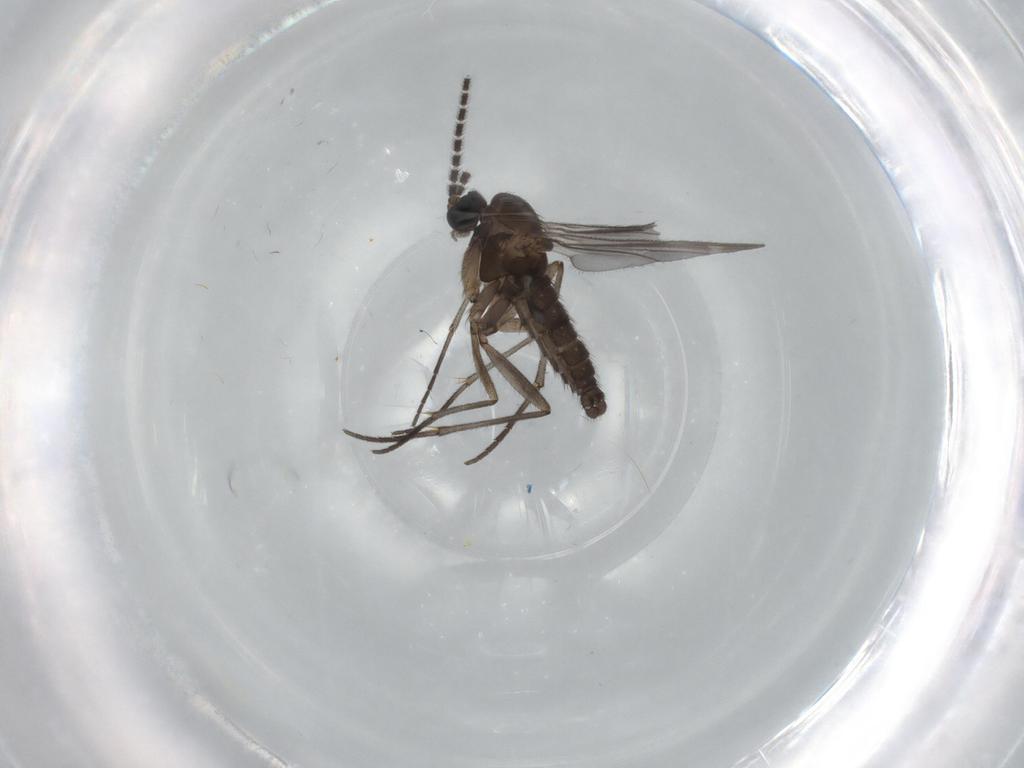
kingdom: Animalia
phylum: Arthropoda
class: Insecta
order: Diptera
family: Sciaridae
